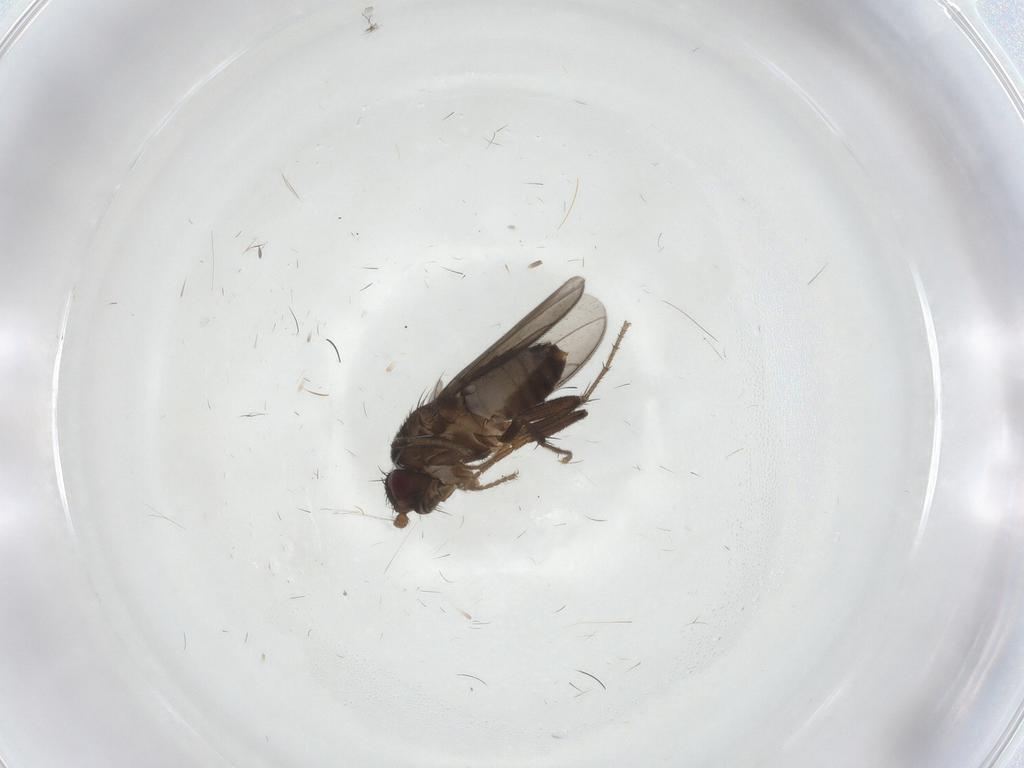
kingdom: Animalia
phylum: Arthropoda
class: Insecta
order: Diptera
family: Sphaeroceridae
